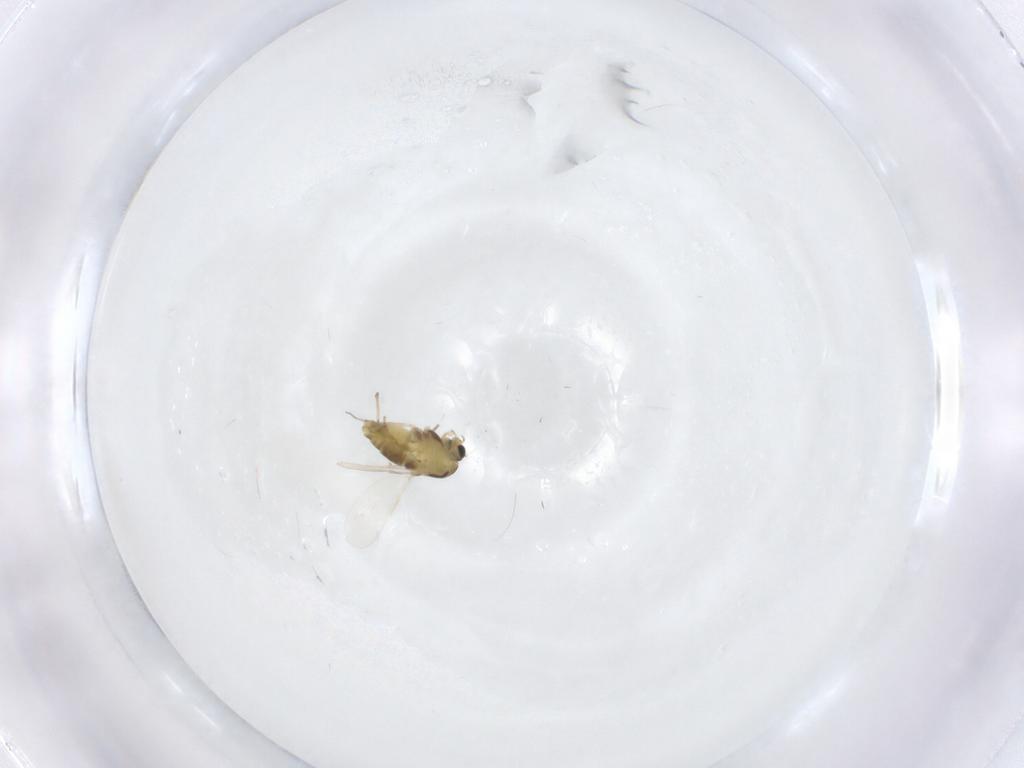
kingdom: Animalia
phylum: Arthropoda
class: Insecta
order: Diptera
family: Chironomidae
